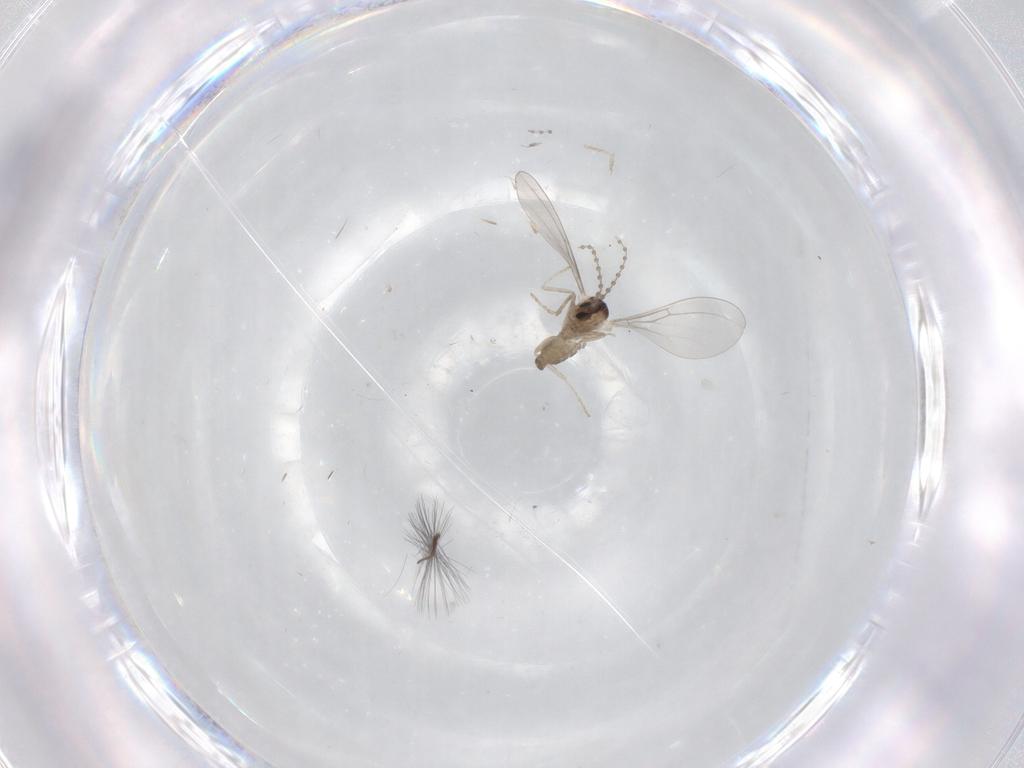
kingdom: Animalia
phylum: Arthropoda
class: Insecta
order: Diptera
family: Cecidomyiidae
